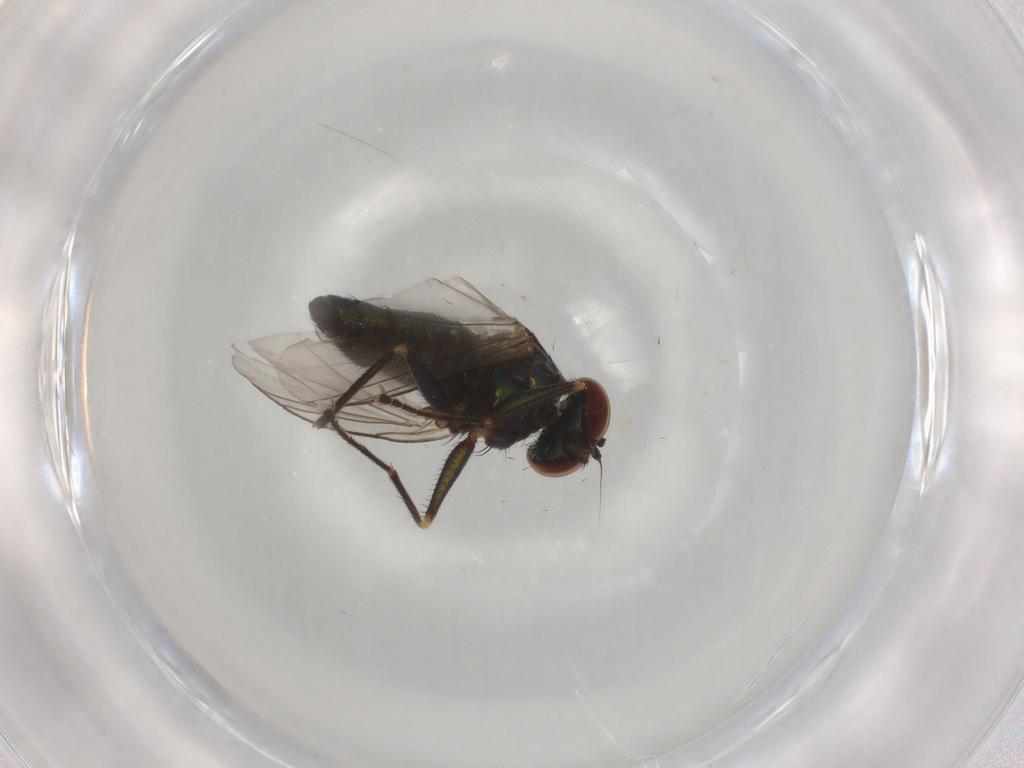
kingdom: Animalia
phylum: Arthropoda
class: Insecta
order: Diptera
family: Dolichopodidae
